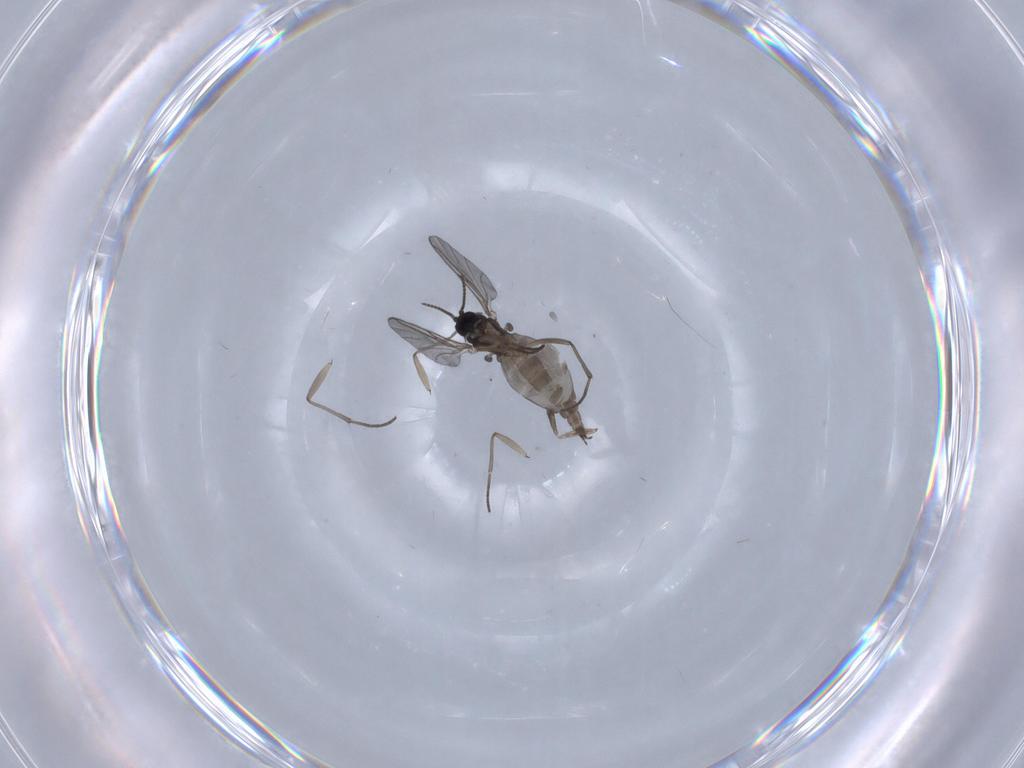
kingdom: Animalia
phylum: Arthropoda
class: Insecta
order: Diptera
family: Sciaridae
